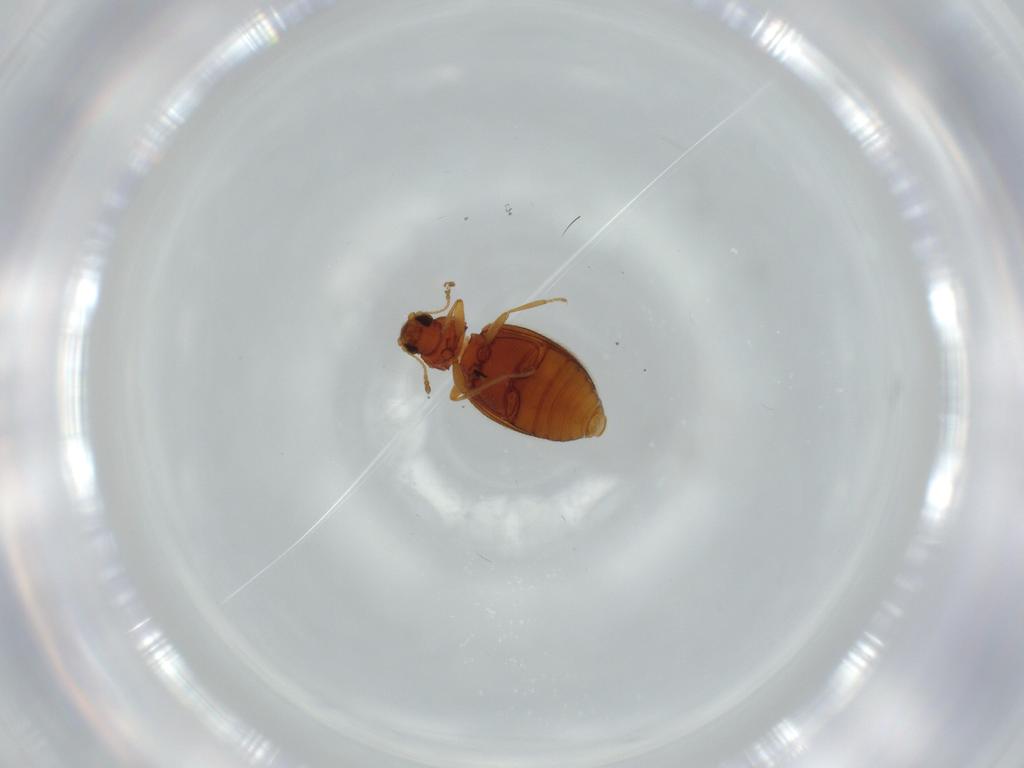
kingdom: Animalia
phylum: Arthropoda
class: Insecta
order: Coleoptera
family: Latridiidae
